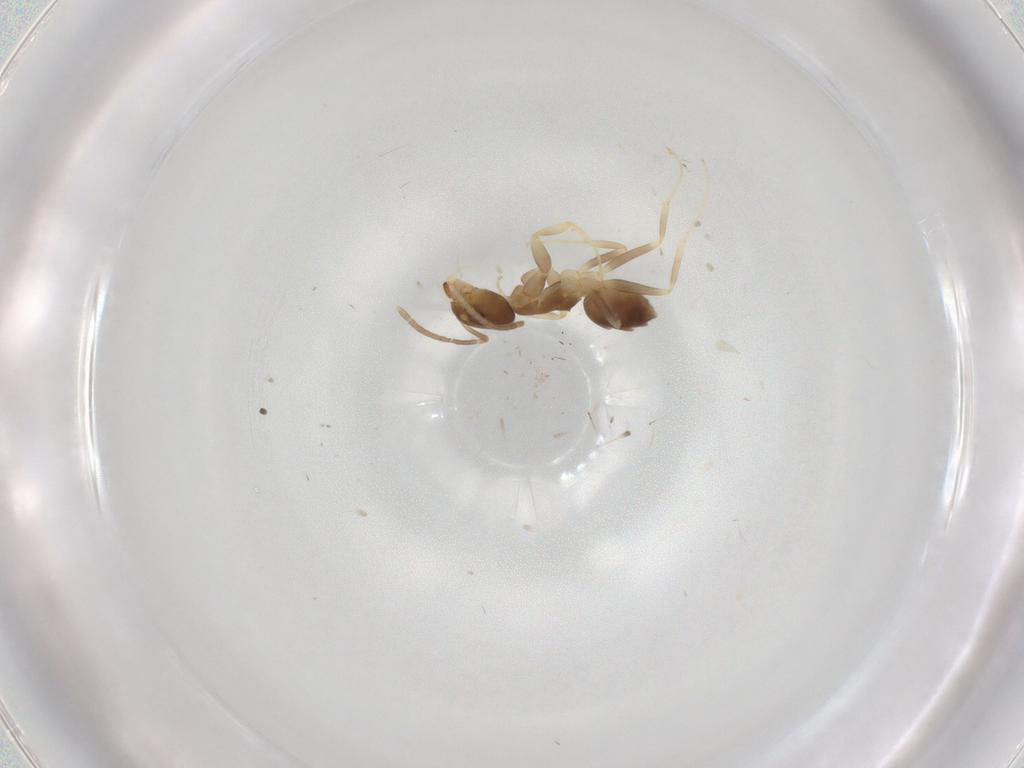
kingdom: Animalia
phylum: Arthropoda
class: Insecta
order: Hymenoptera
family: Formicidae
